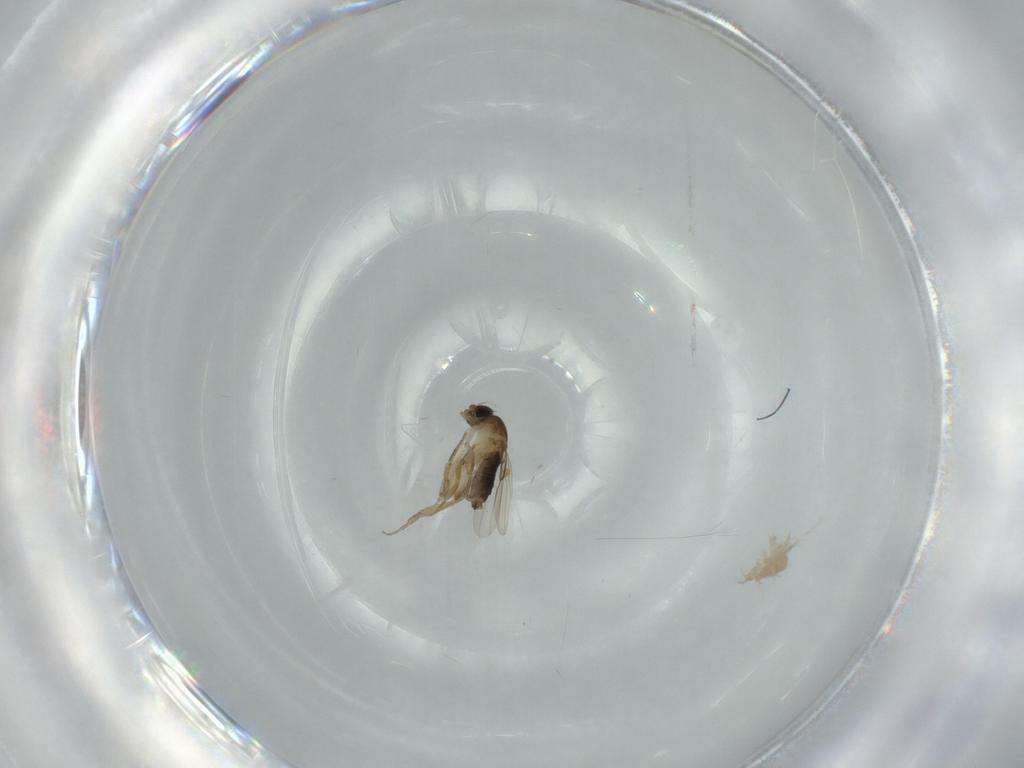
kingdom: Animalia
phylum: Arthropoda
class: Insecta
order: Diptera
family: Phoridae
